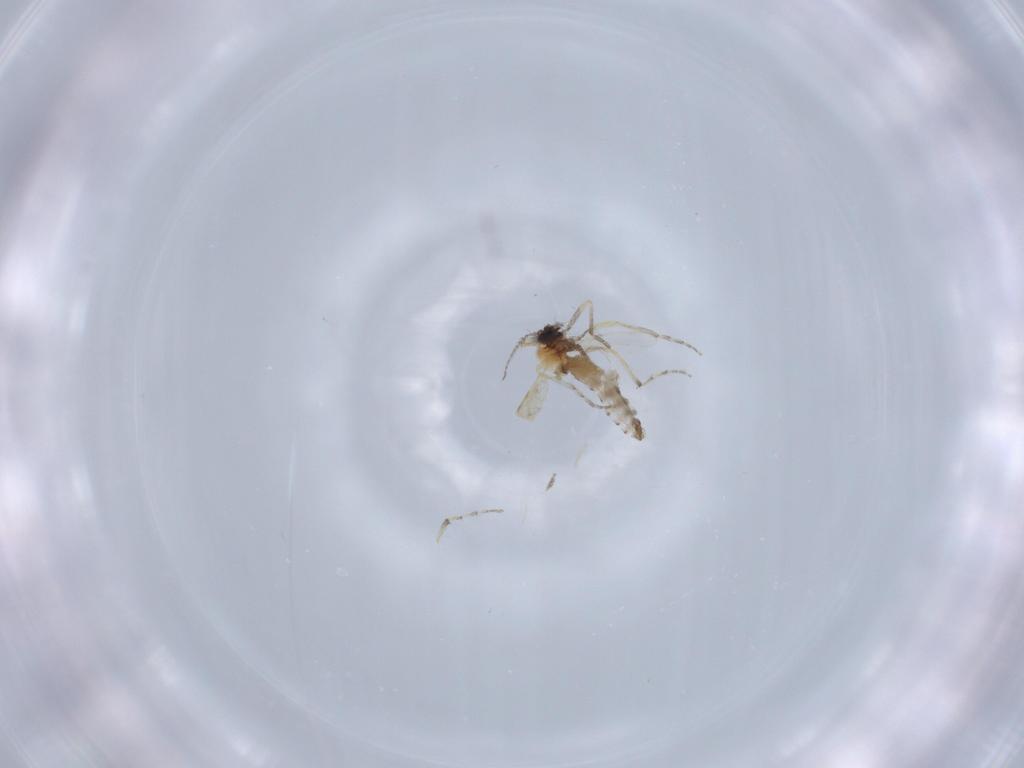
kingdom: Animalia
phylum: Arthropoda
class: Insecta
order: Diptera
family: Ceratopogonidae
